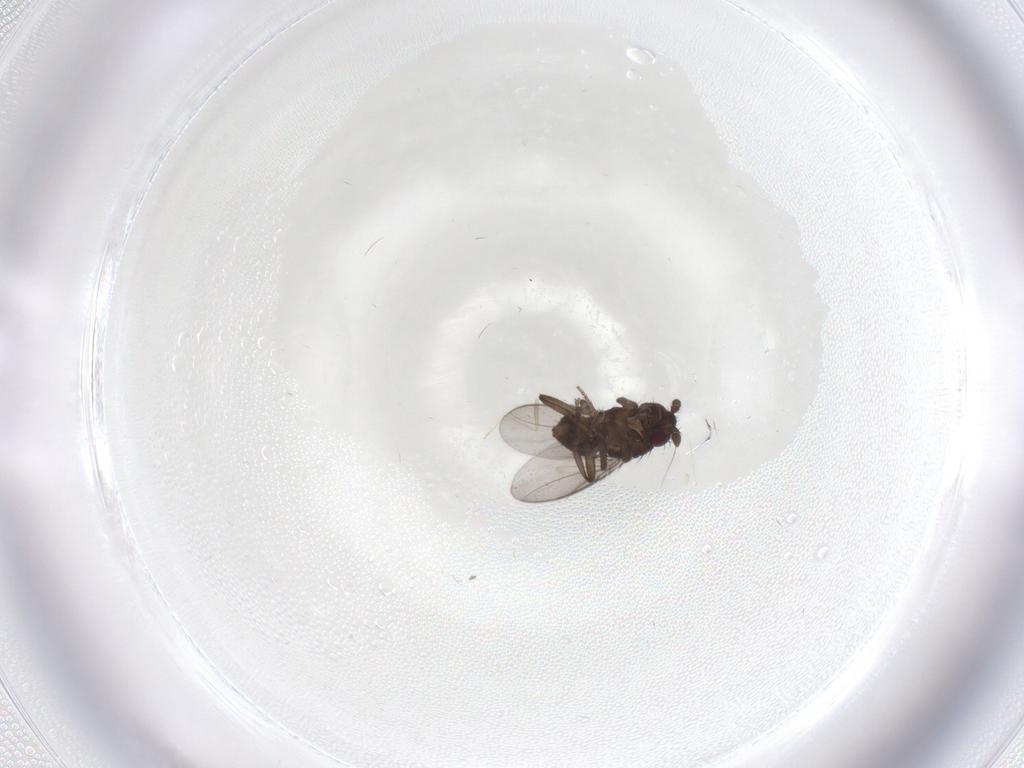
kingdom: Animalia
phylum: Arthropoda
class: Insecta
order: Diptera
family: Sphaeroceridae
